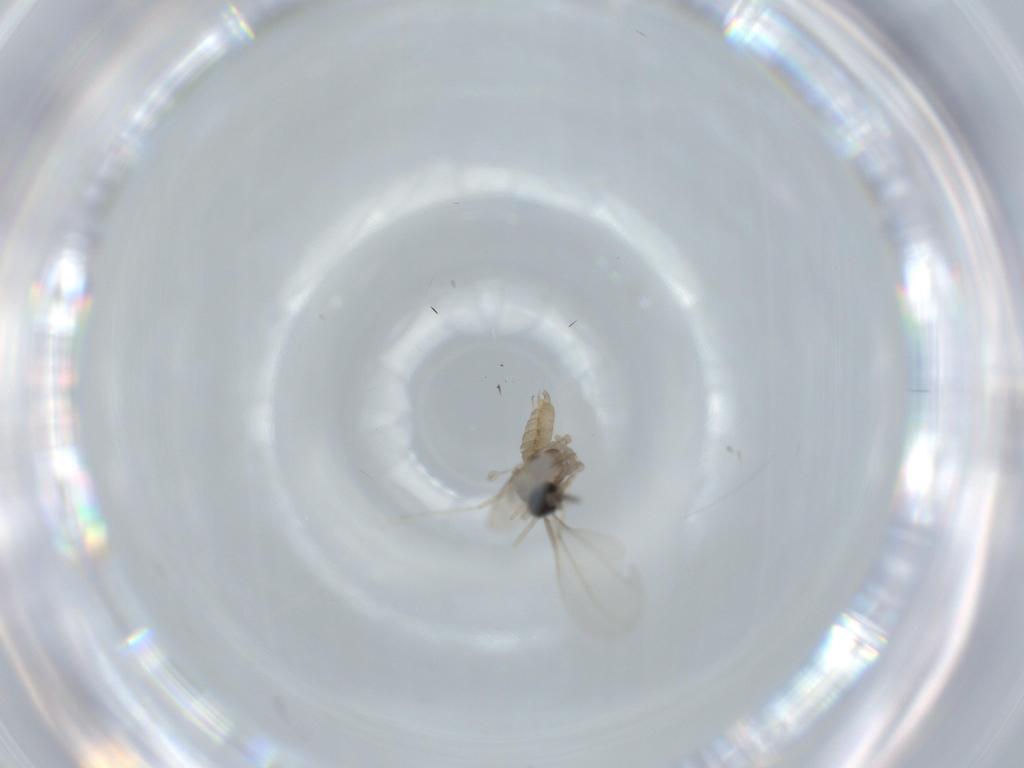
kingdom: Animalia
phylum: Arthropoda
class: Insecta
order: Diptera
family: Cecidomyiidae
